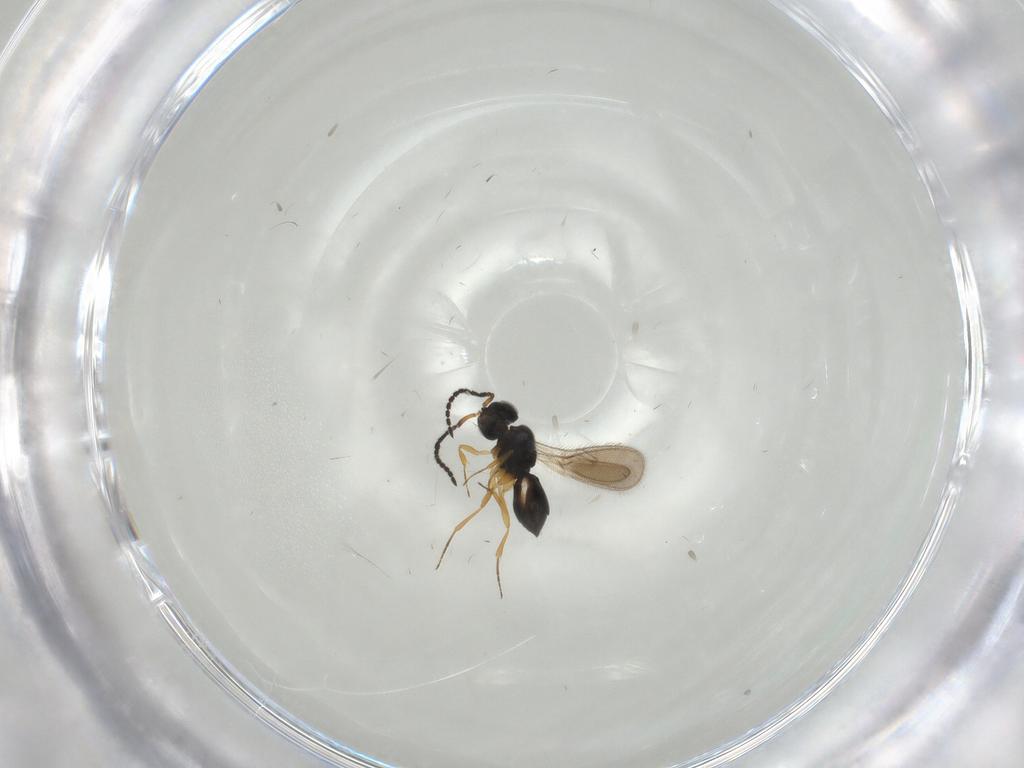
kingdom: Animalia
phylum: Arthropoda
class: Insecta
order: Hymenoptera
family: Scelionidae
